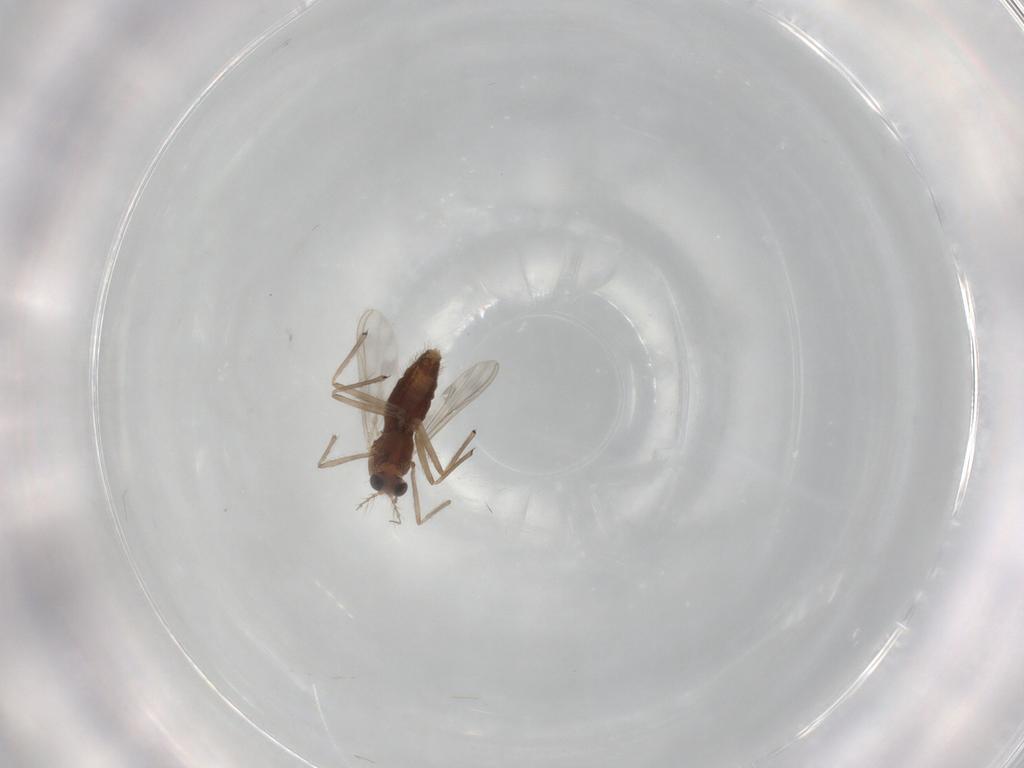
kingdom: Animalia
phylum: Arthropoda
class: Insecta
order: Diptera
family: Chironomidae
